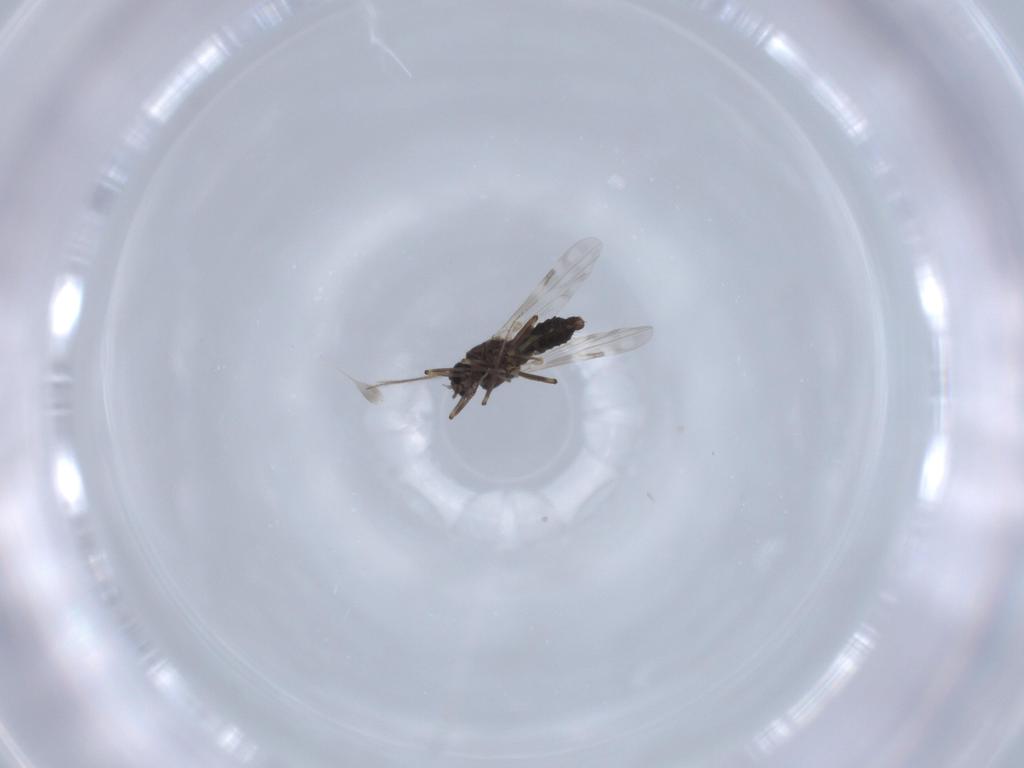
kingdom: Animalia
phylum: Arthropoda
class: Insecta
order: Diptera
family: Ceratopogonidae
